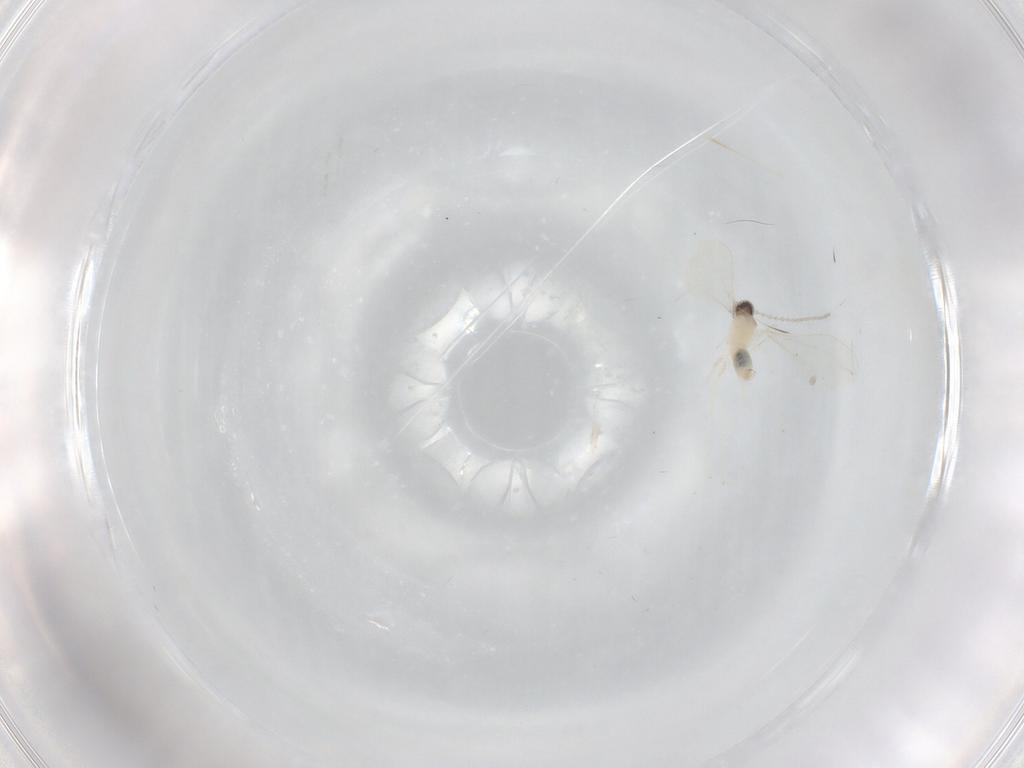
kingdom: Animalia
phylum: Arthropoda
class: Insecta
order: Diptera
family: Cecidomyiidae
